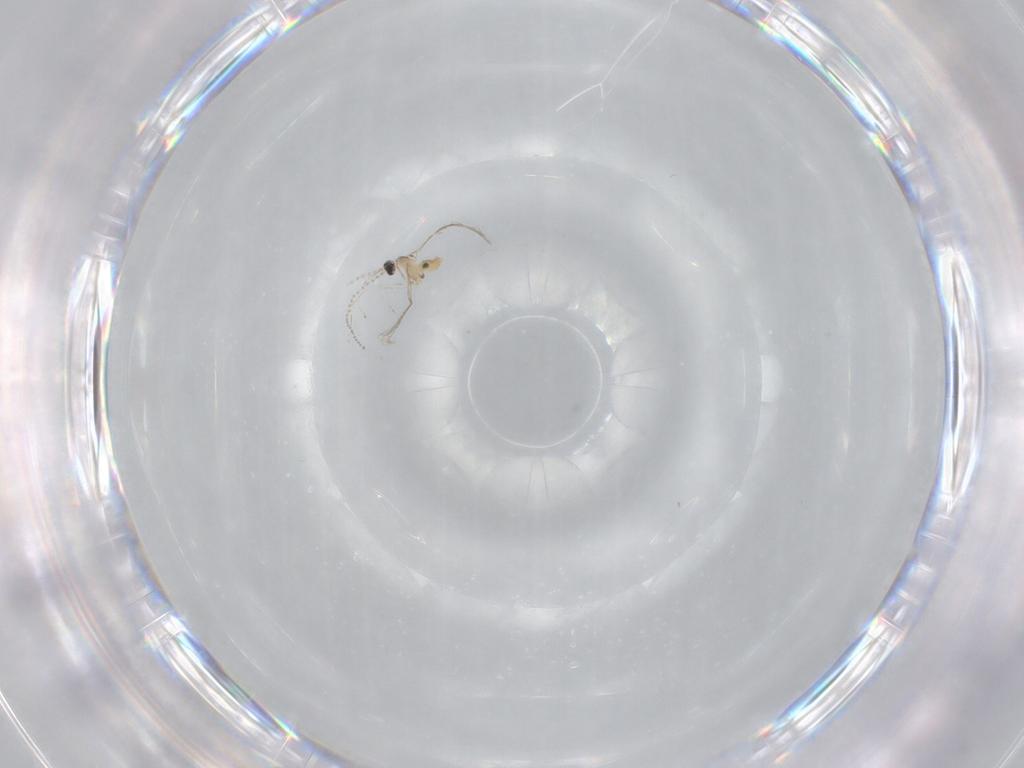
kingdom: Animalia
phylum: Arthropoda
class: Insecta
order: Diptera
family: Cecidomyiidae
